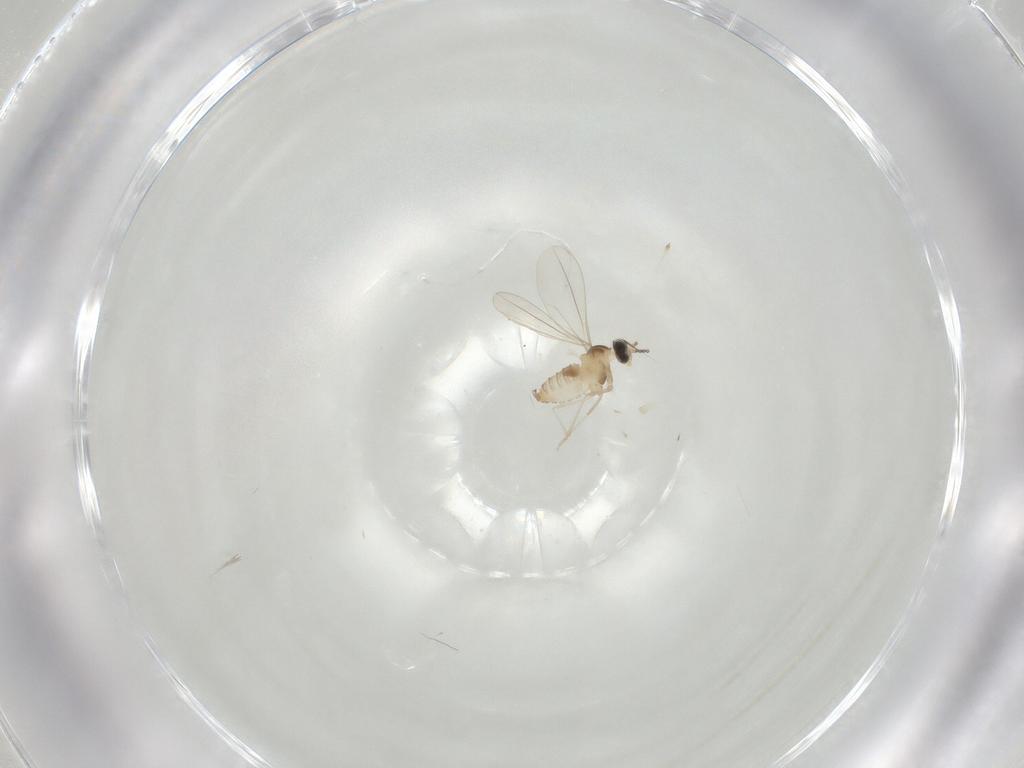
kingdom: Animalia
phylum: Arthropoda
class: Insecta
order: Diptera
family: Cecidomyiidae
